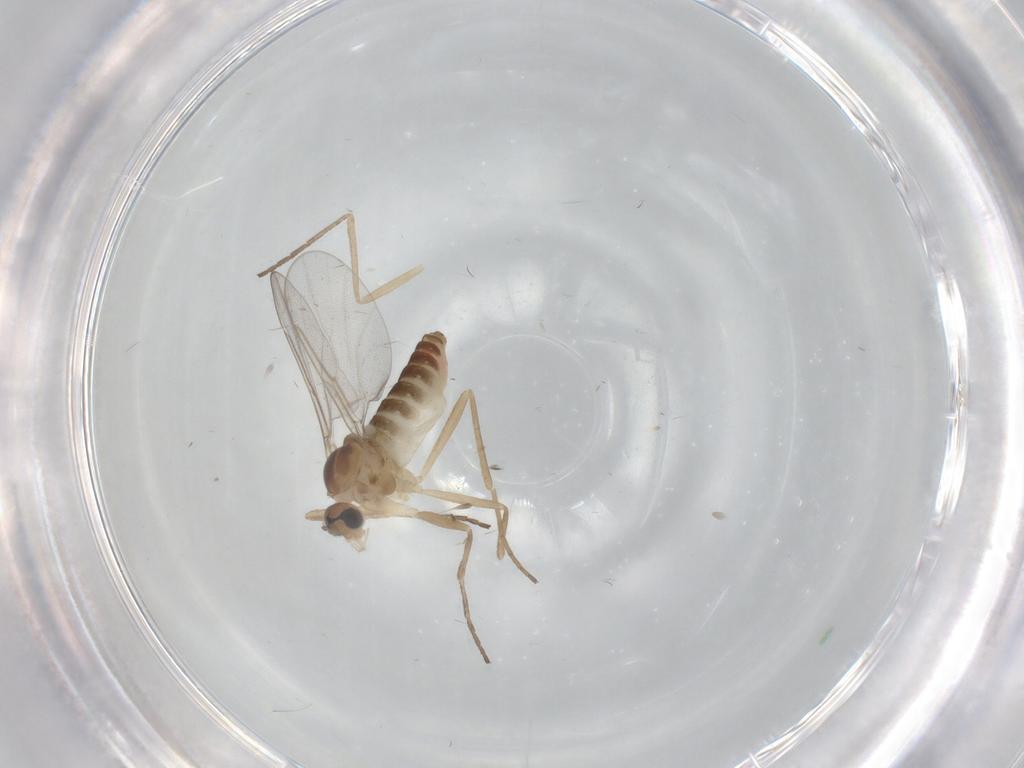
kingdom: Animalia
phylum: Arthropoda
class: Insecta
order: Diptera
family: Cecidomyiidae
